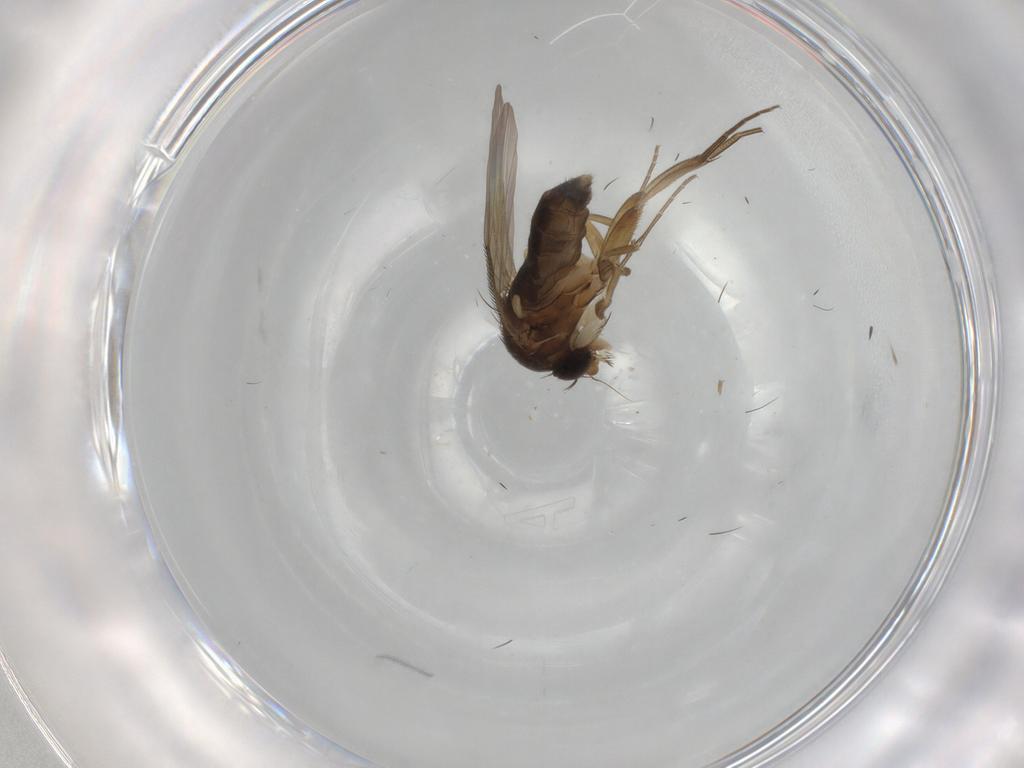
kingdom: Animalia
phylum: Arthropoda
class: Insecta
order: Diptera
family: Phoridae
